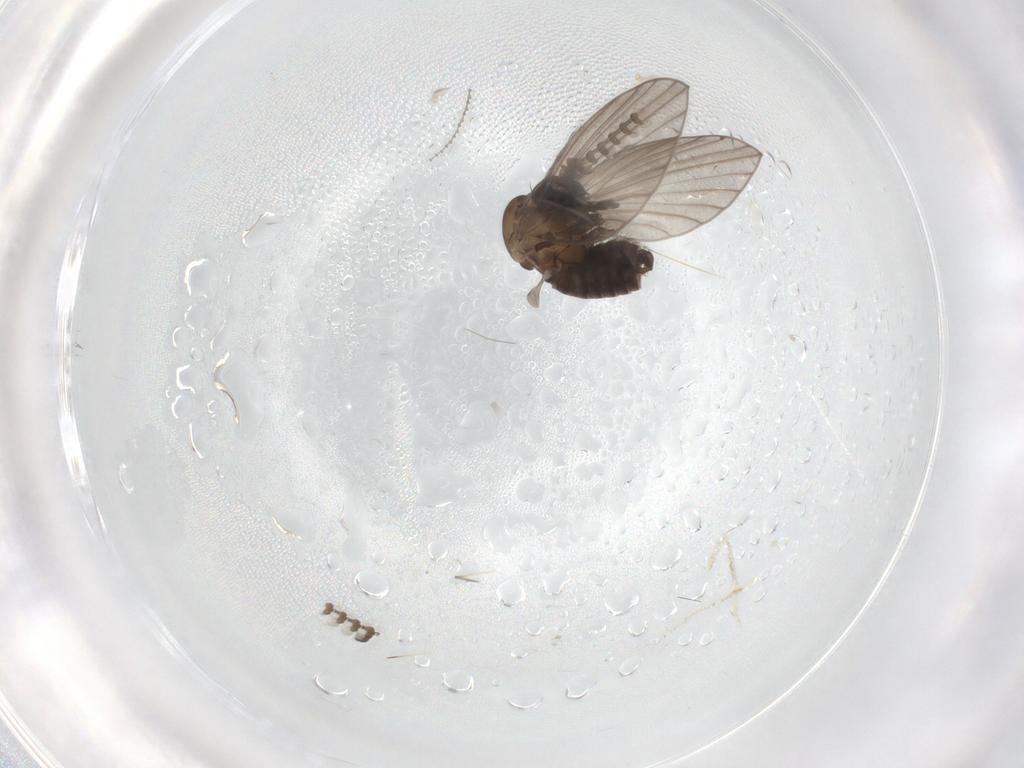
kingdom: Animalia
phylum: Arthropoda
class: Insecta
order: Diptera
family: Psychodidae
